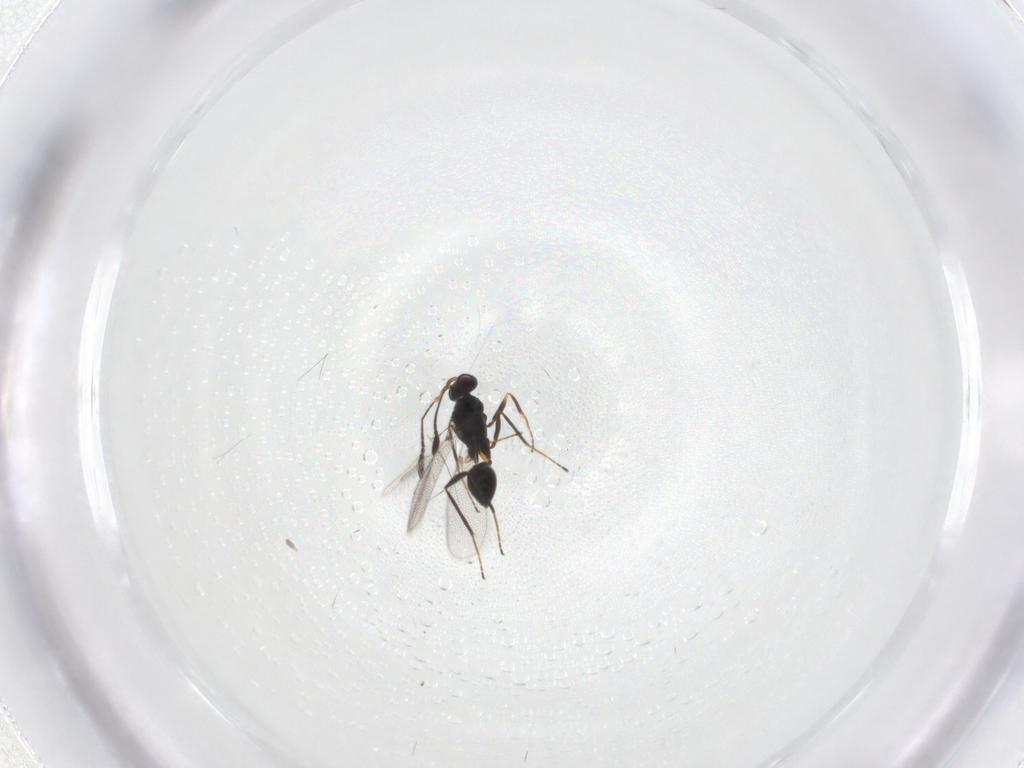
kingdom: Animalia
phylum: Arthropoda
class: Insecta
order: Hymenoptera
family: Mymaridae
